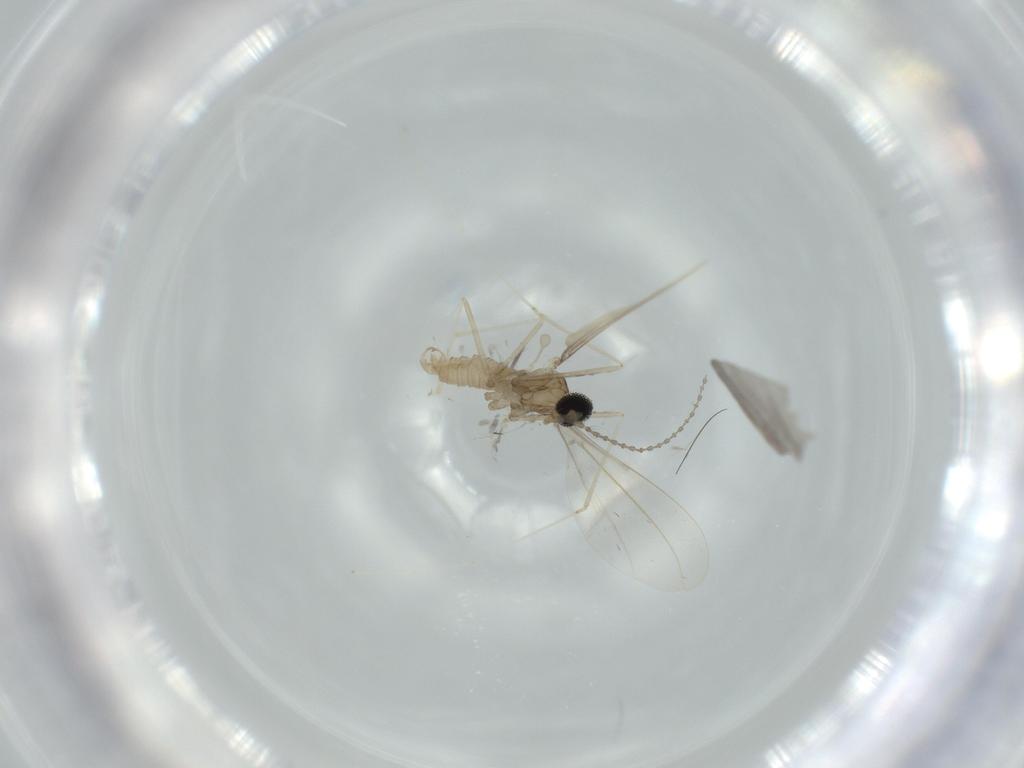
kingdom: Animalia
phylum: Arthropoda
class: Insecta
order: Diptera
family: Cecidomyiidae
